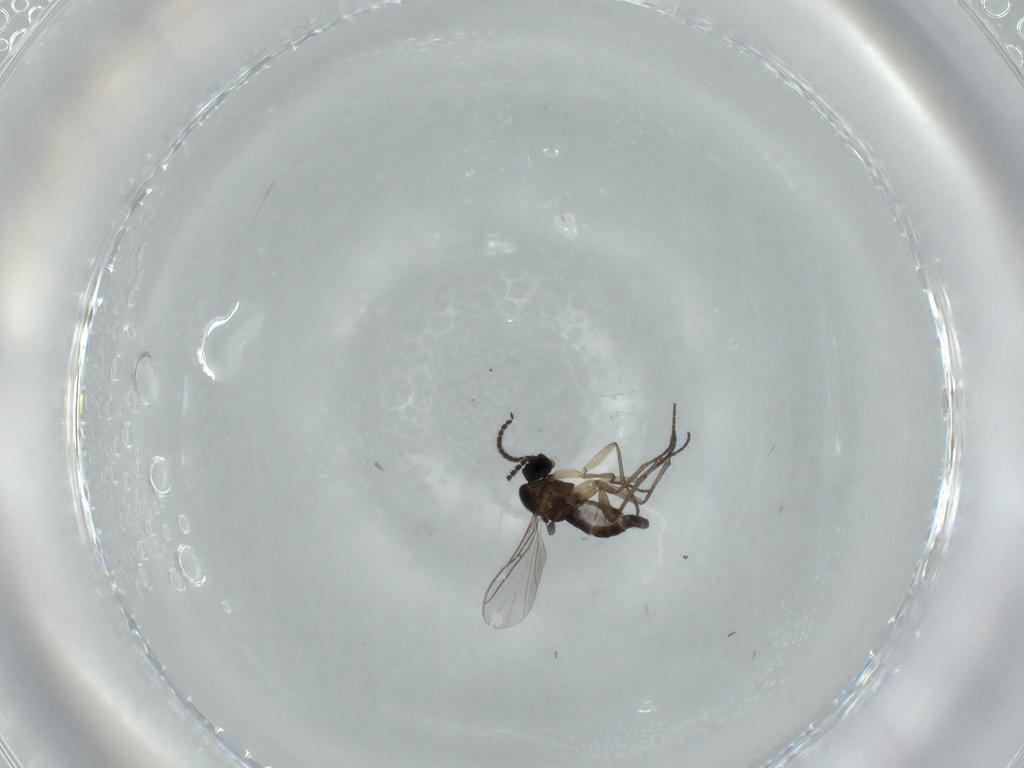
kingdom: Animalia
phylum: Arthropoda
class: Insecta
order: Diptera
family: Sciaridae
